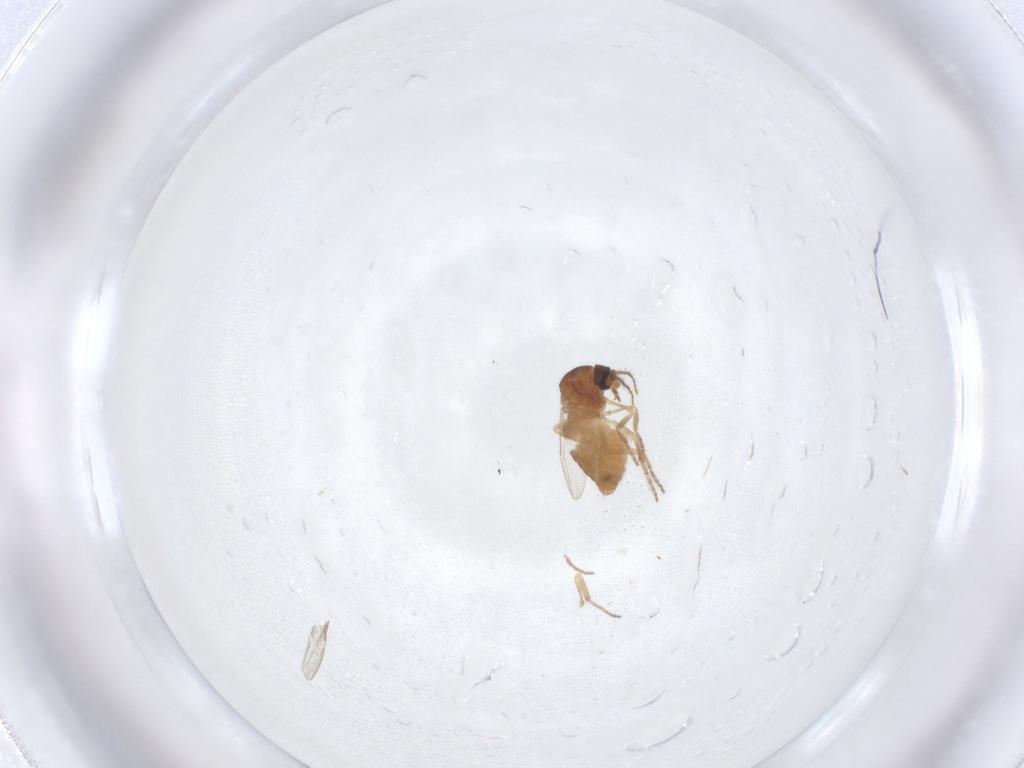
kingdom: Animalia
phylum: Arthropoda
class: Insecta
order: Diptera
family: Ceratopogonidae
